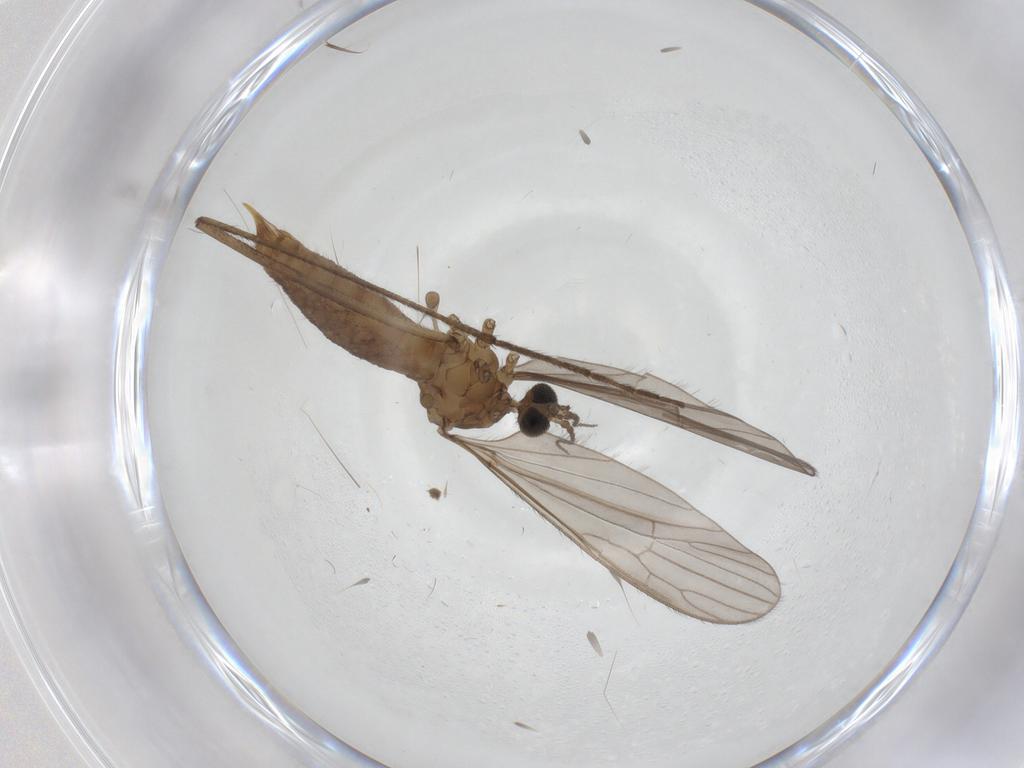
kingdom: Animalia
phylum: Arthropoda
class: Insecta
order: Diptera
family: Limoniidae
